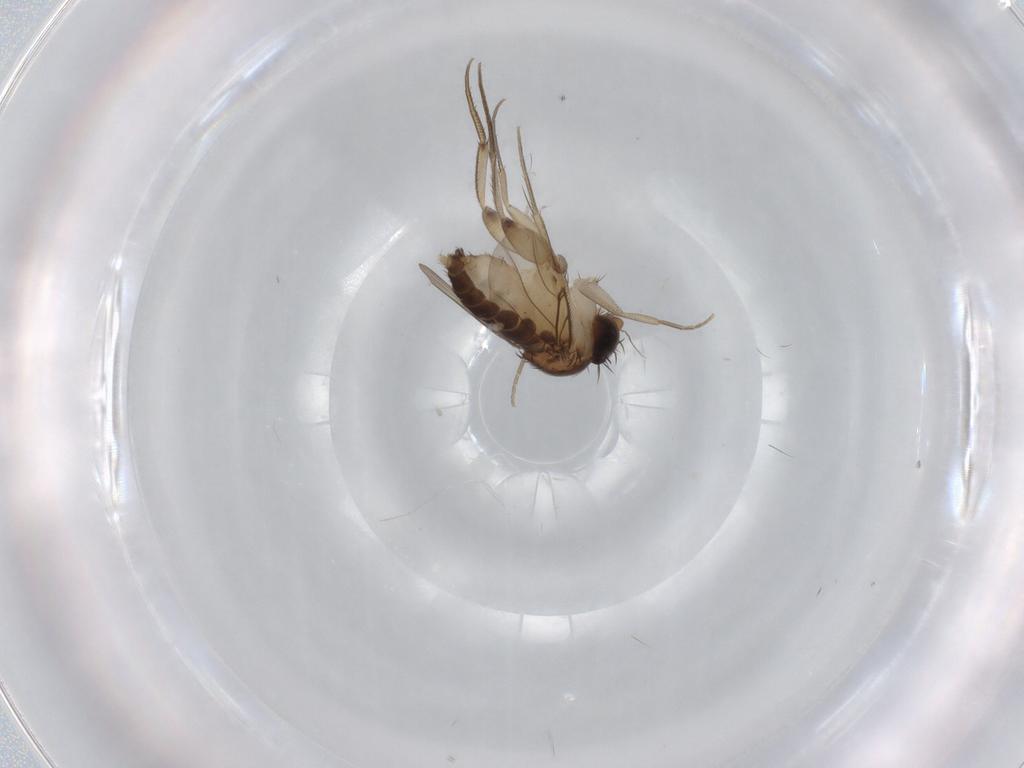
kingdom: Animalia
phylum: Arthropoda
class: Insecta
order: Diptera
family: Phoridae
